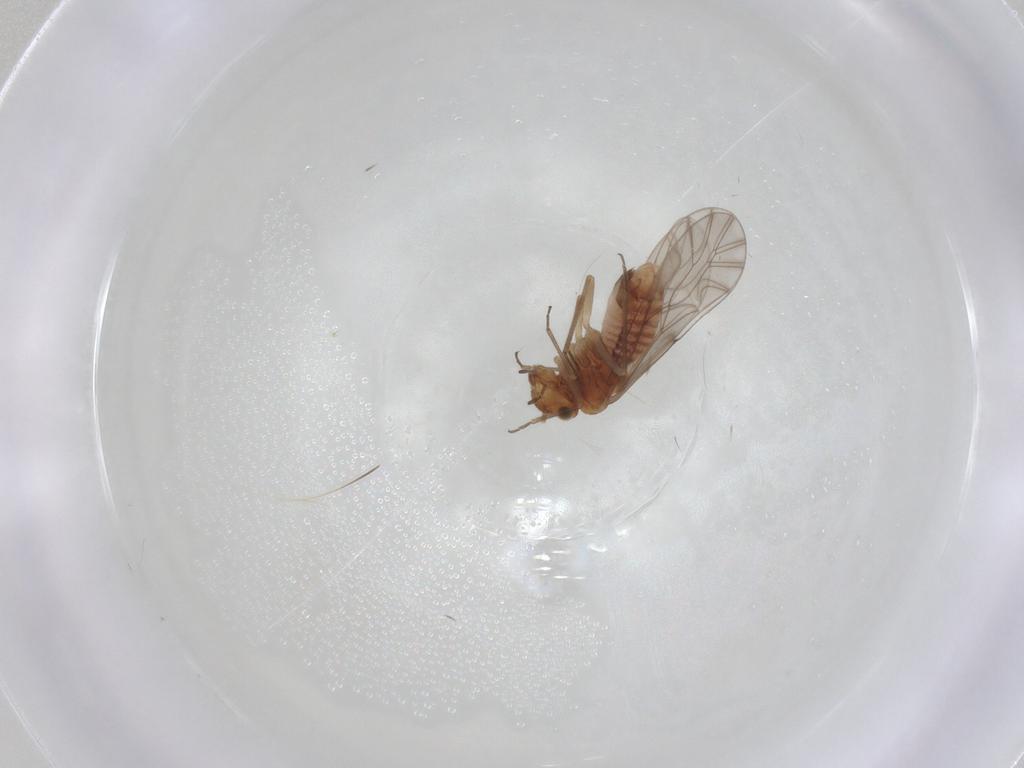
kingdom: Animalia
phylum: Arthropoda
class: Insecta
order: Psocodea
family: Lachesillidae
